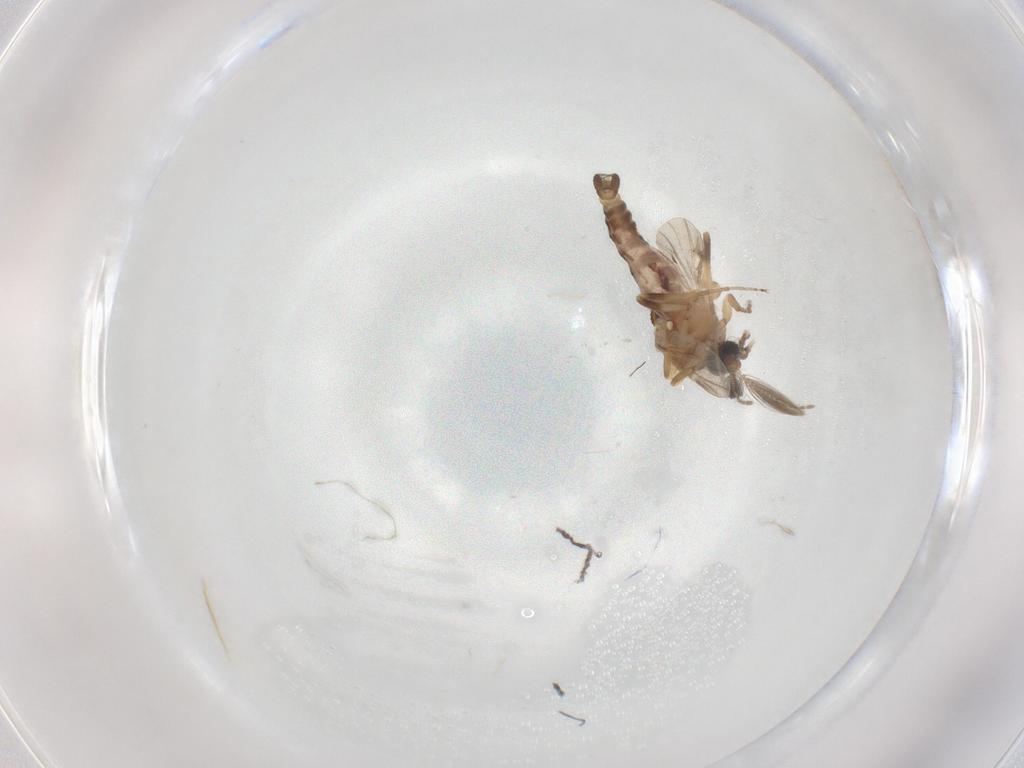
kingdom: Animalia
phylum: Arthropoda
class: Insecta
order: Diptera
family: Ceratopogonidae
